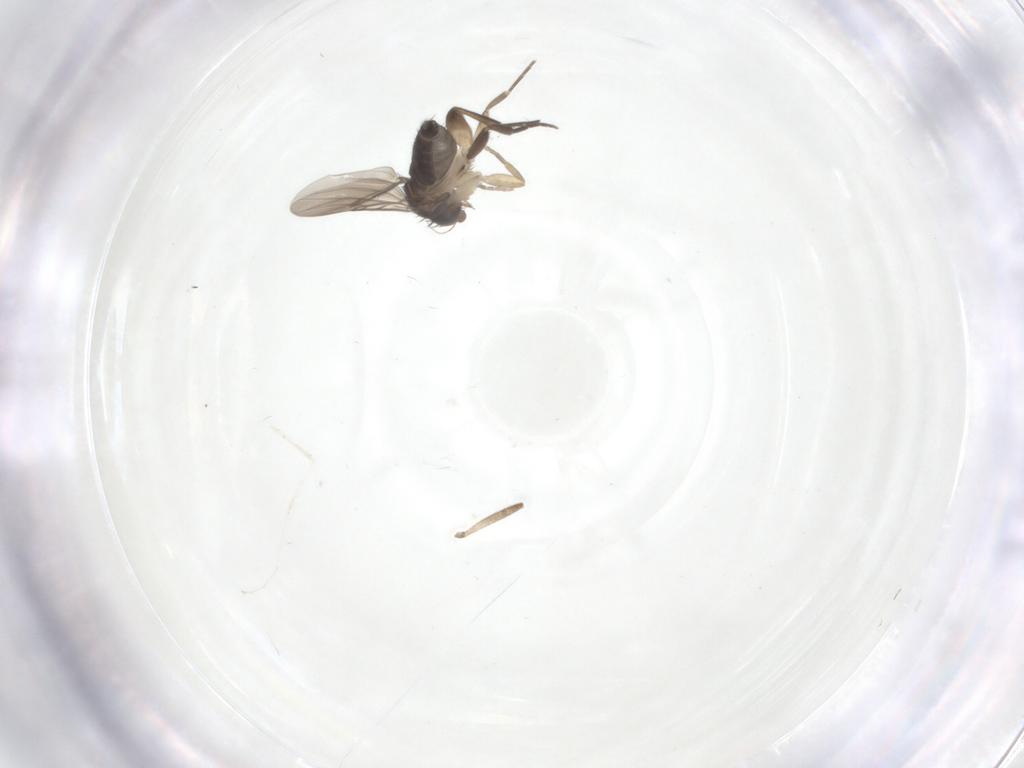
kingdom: Animalia
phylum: Arthropoda
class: Insecta
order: Diptera
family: Phoridae
